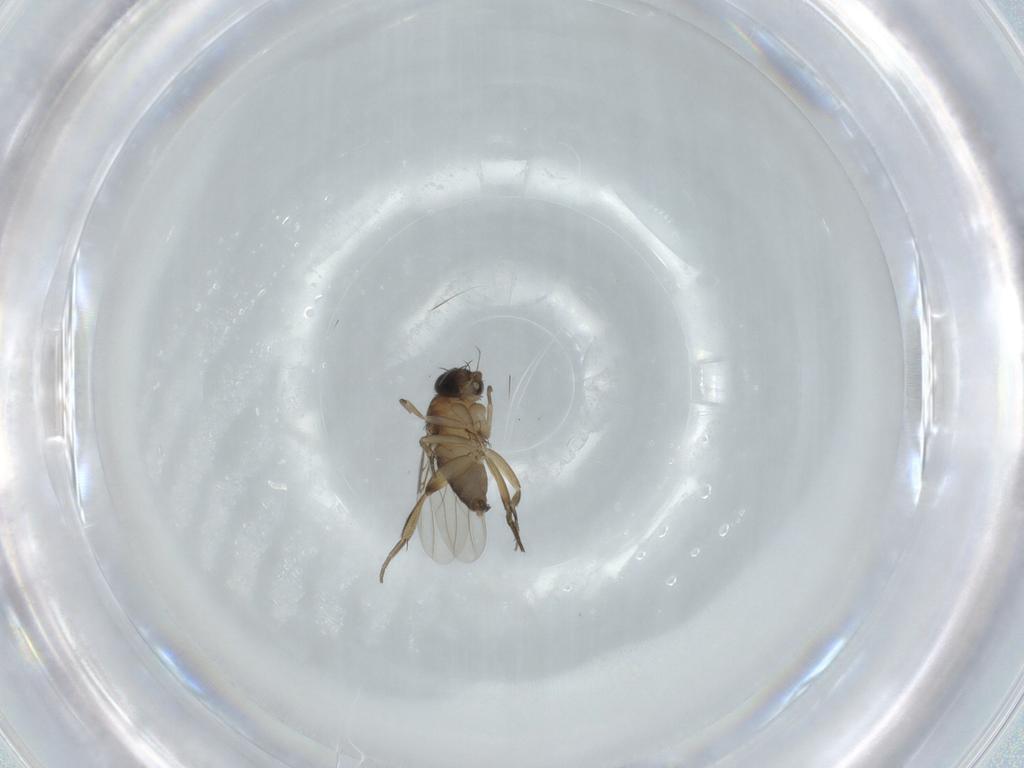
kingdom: Animalia
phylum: Arthropoda
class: Insecta
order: Diptera
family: Phoridae
